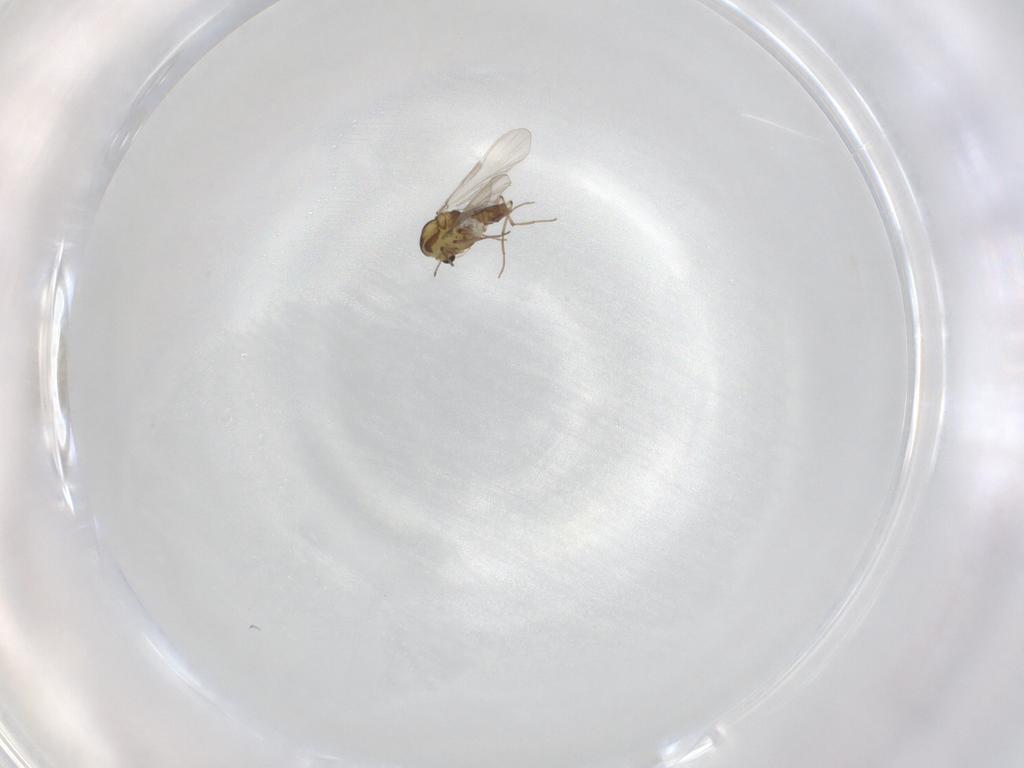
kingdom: Animalia
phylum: Arthropoda
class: Insecta
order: Diptera
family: Chironomidae
